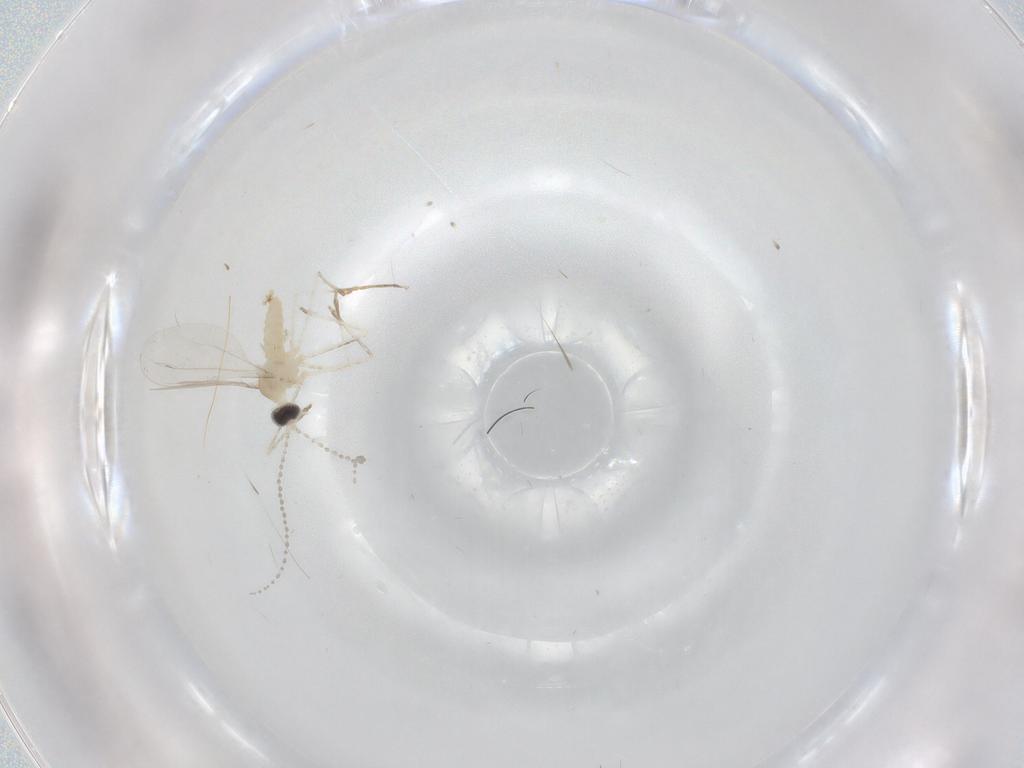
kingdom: Animalia
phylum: Arthropoda
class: Insecta
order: Diptera
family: Cecidomyiidae
